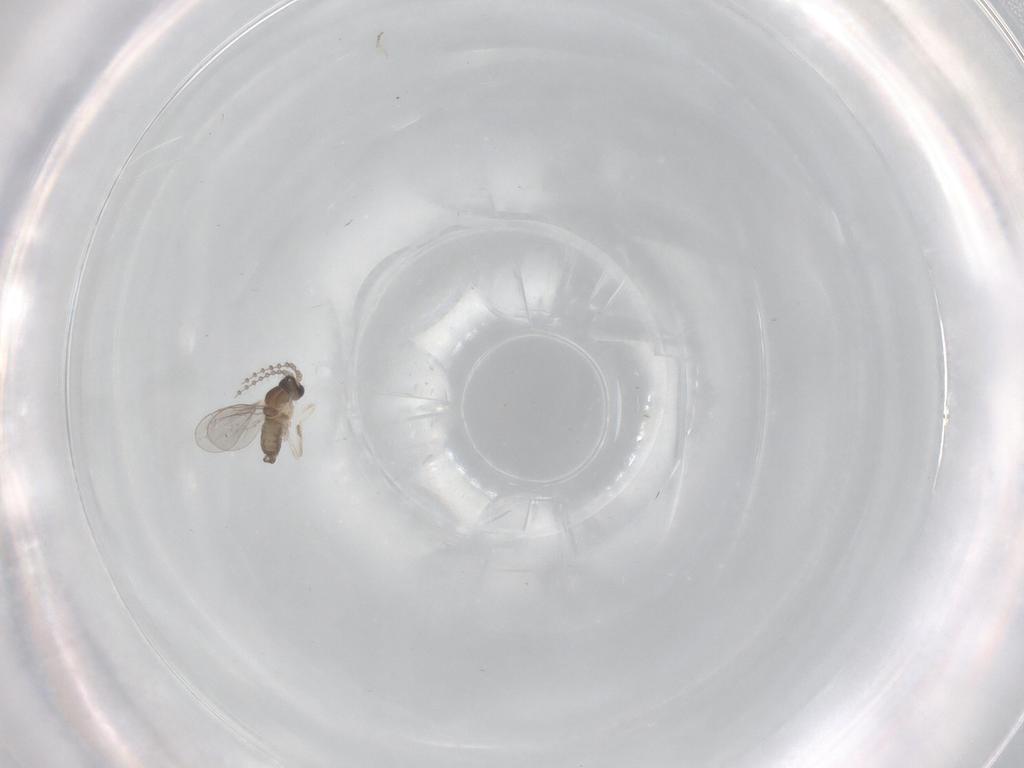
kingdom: Animalia
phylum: Arthropoda
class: Insecta
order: Diptera
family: Cecidomyiidae
